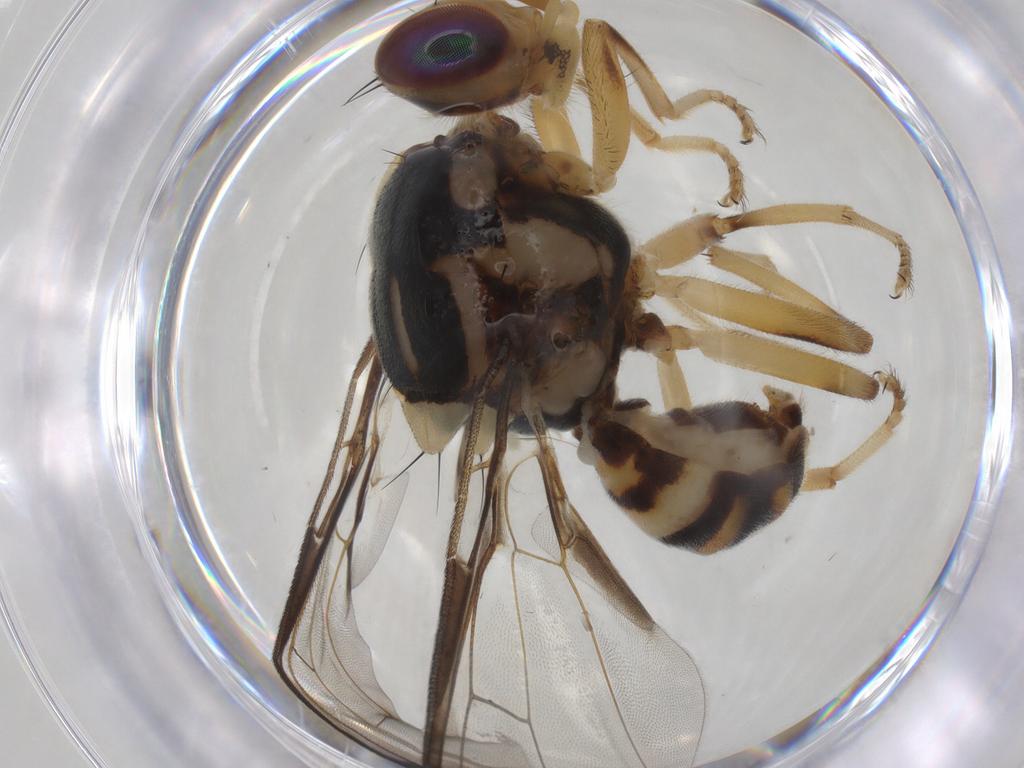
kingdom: Animalia
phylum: Arthropoda
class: Insecta
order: Diptera
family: Tephritidae
